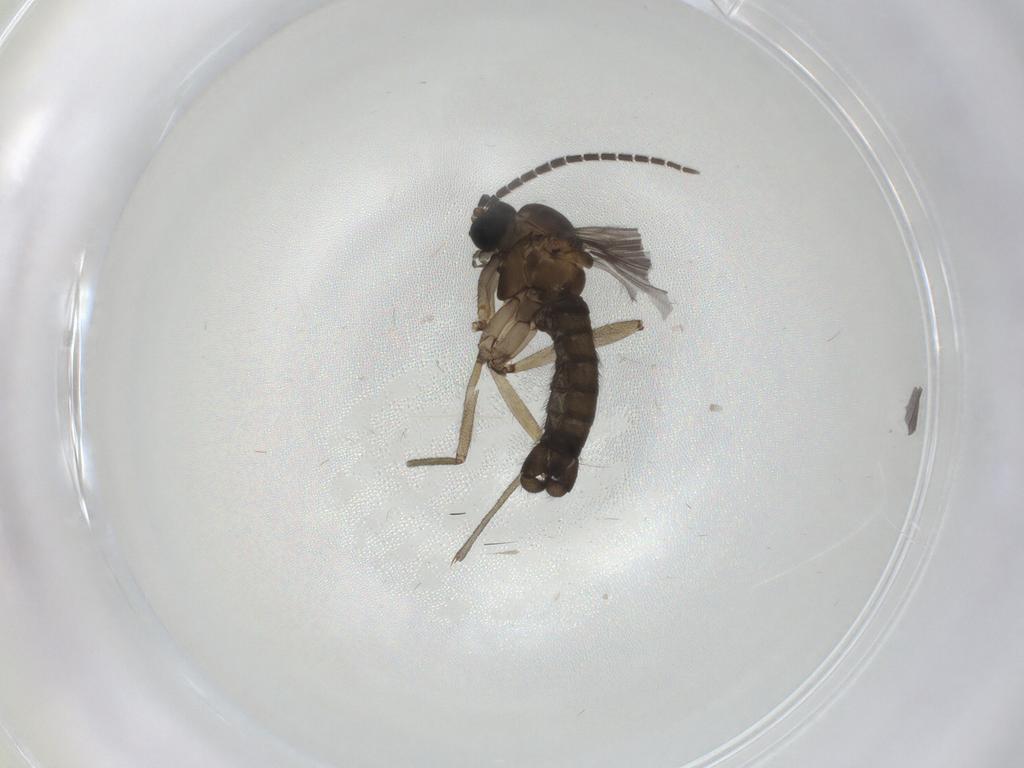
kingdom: Animalia
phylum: Arthropoda
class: Insecta
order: Diptera
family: Sciaridae
